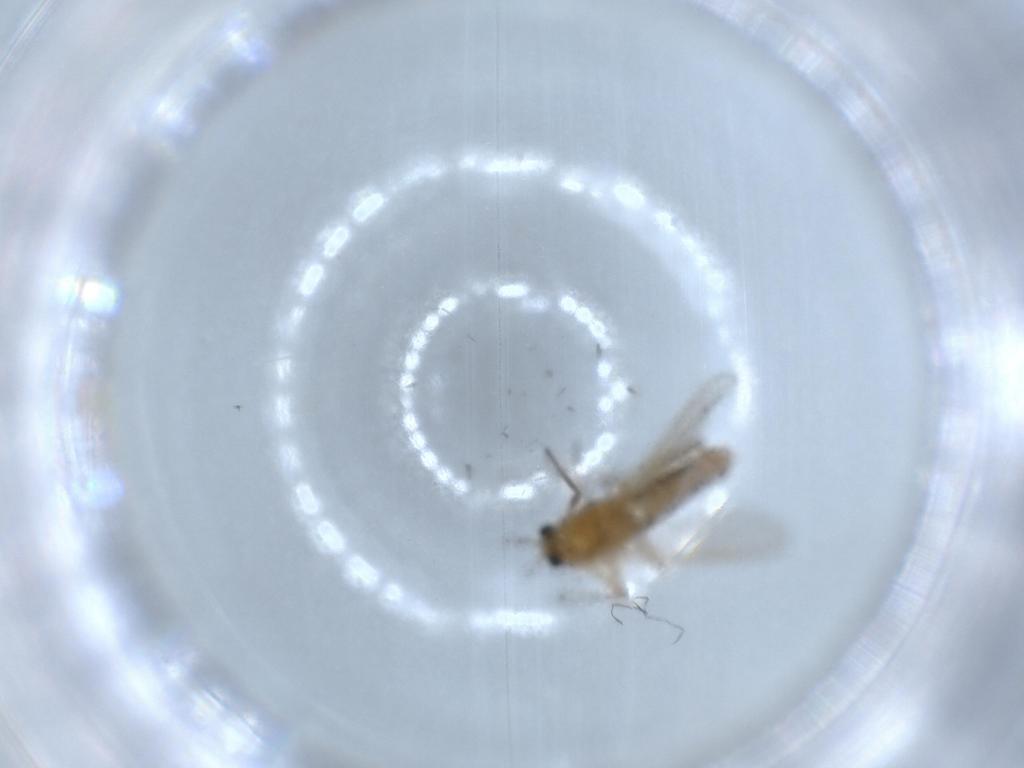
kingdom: Animalia
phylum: Arthropoda
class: Insecta
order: Diptera
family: Chironomidae
